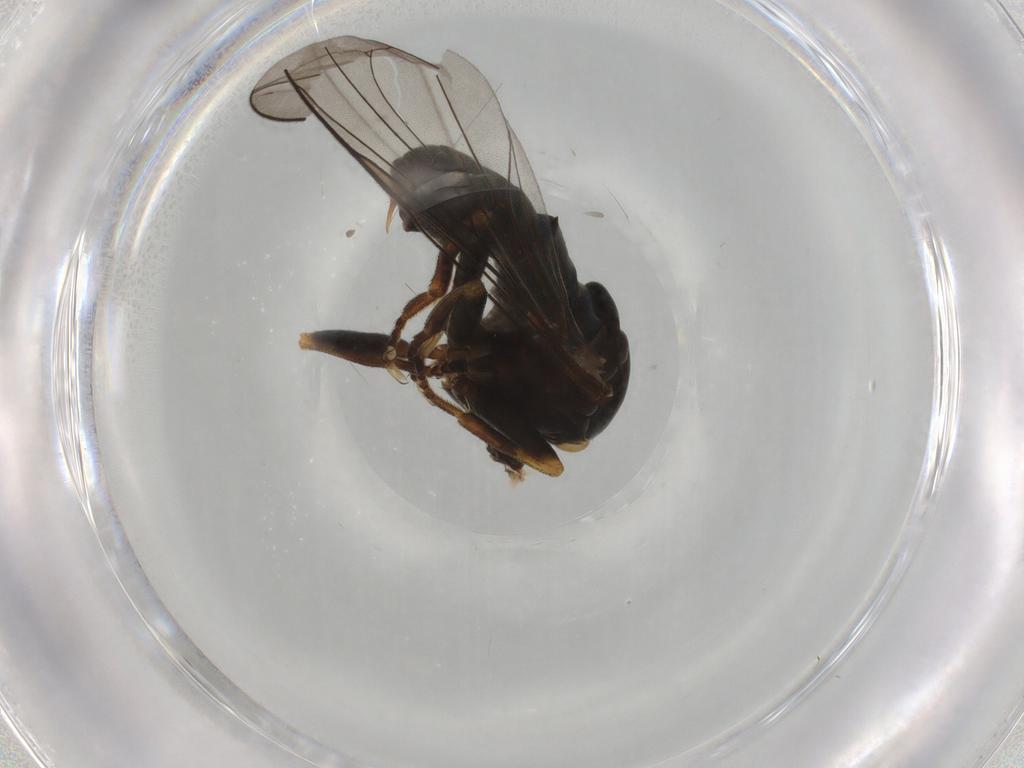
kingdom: Animalia
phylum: Arthropoda
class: Insecta
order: Diptera
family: Pipunculidae
